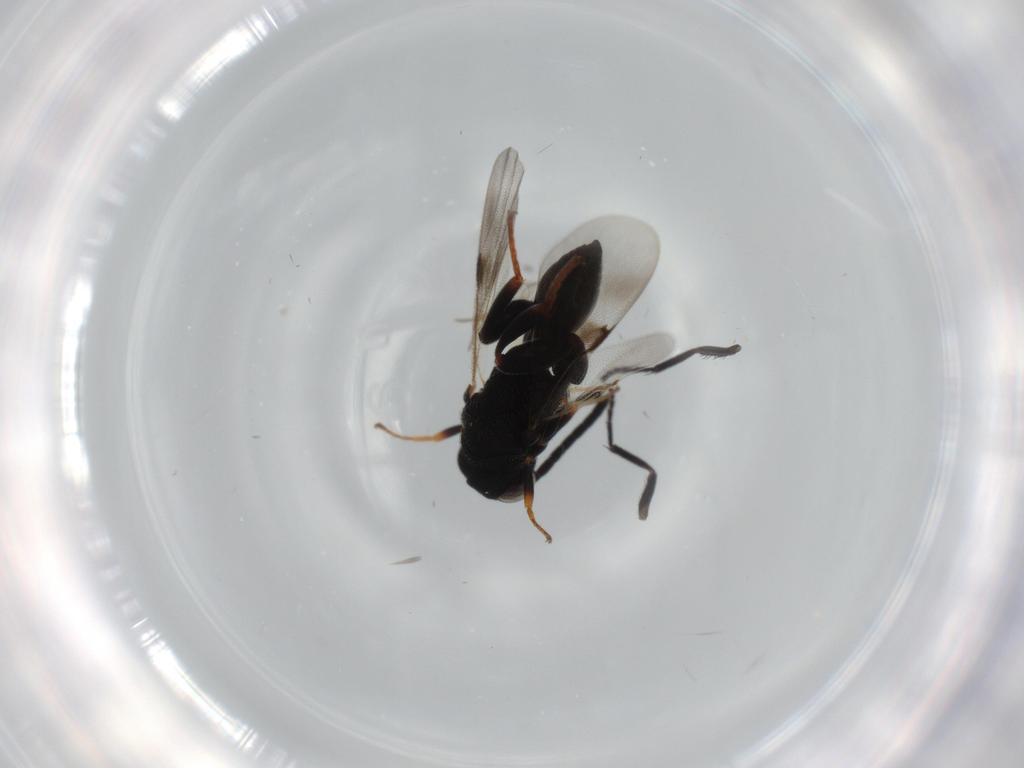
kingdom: Animalia
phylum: Arthropoda
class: Insecta
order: Hymenoptera
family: Aphelinidae
